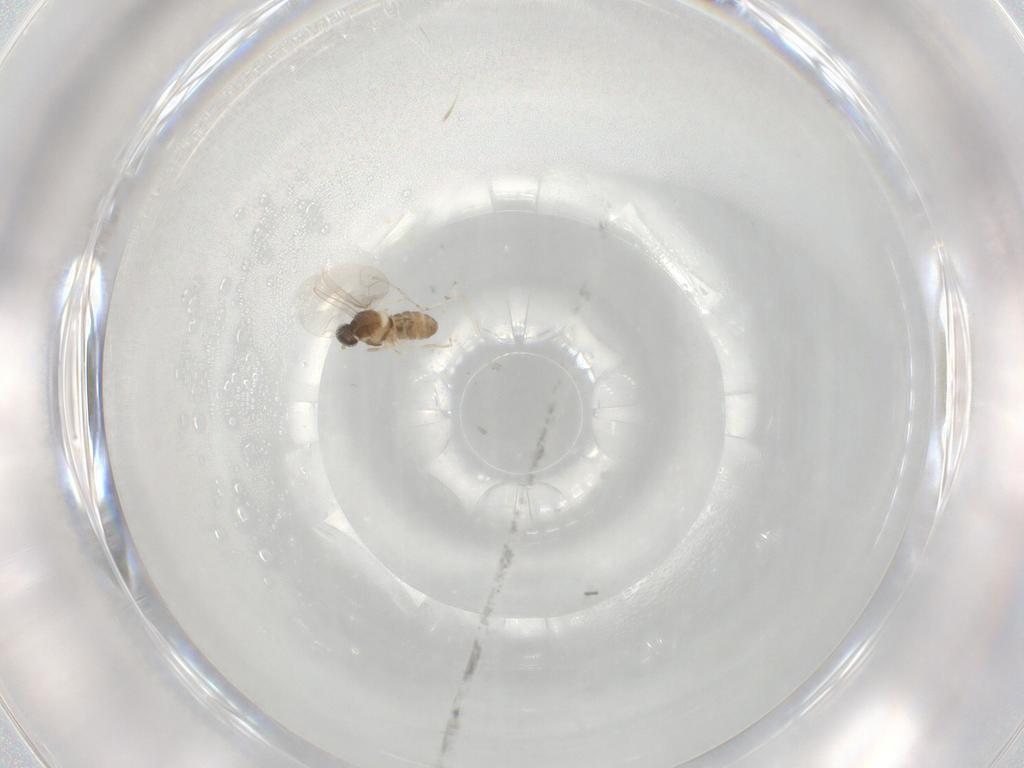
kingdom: Animalia
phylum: Arthropoda
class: Insecta
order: Diptera
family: Cecidomyiidae
